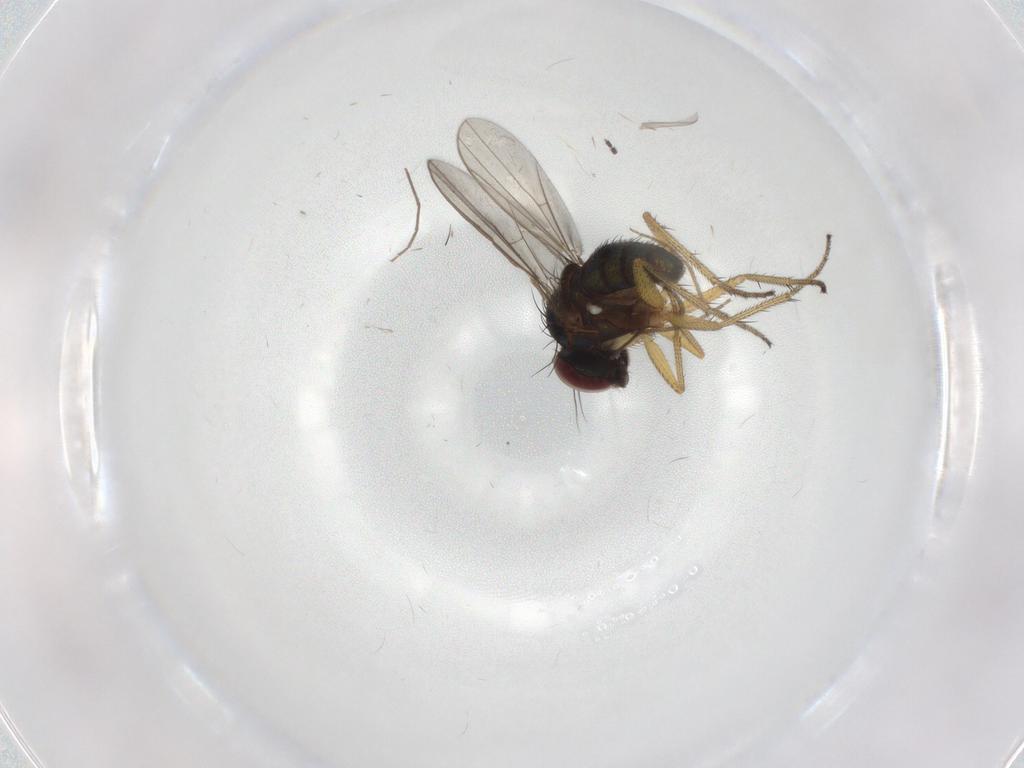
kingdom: Animalia
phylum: Arthropoda
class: Insecta
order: Diptera
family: Chironomidae
